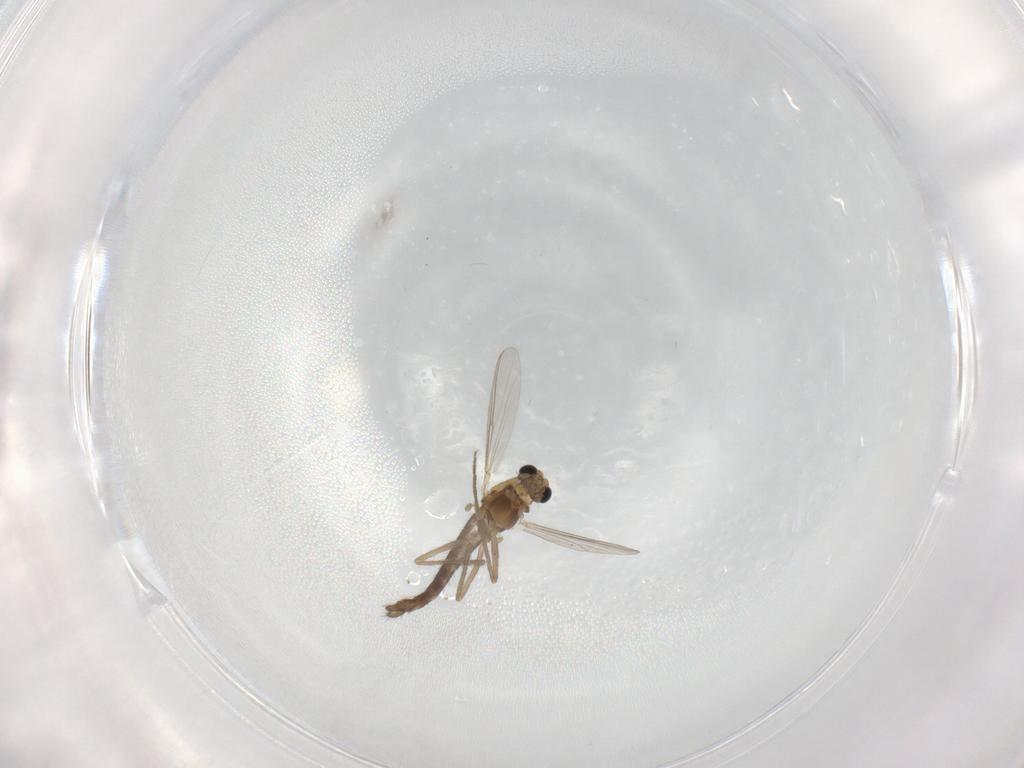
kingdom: Animalia
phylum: Arthropoda
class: Insecta
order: Diptera
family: Chironomidae
